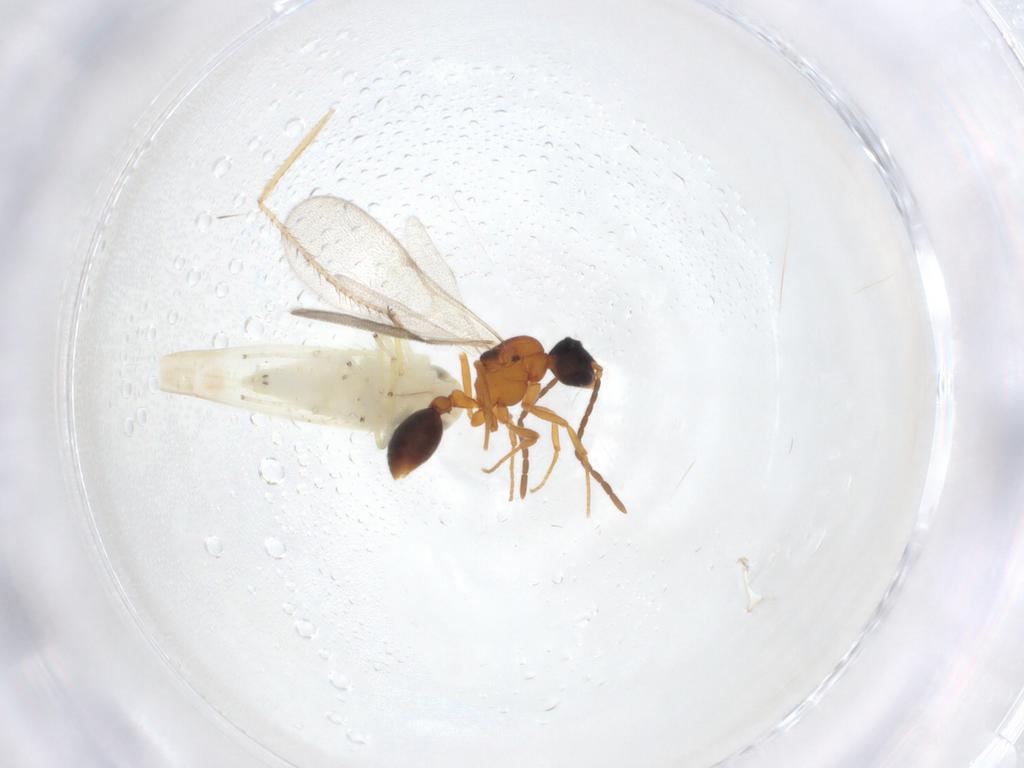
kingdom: Animalia
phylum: Arthropoda
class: Insecta
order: Hemiptera
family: Cicadellidae
